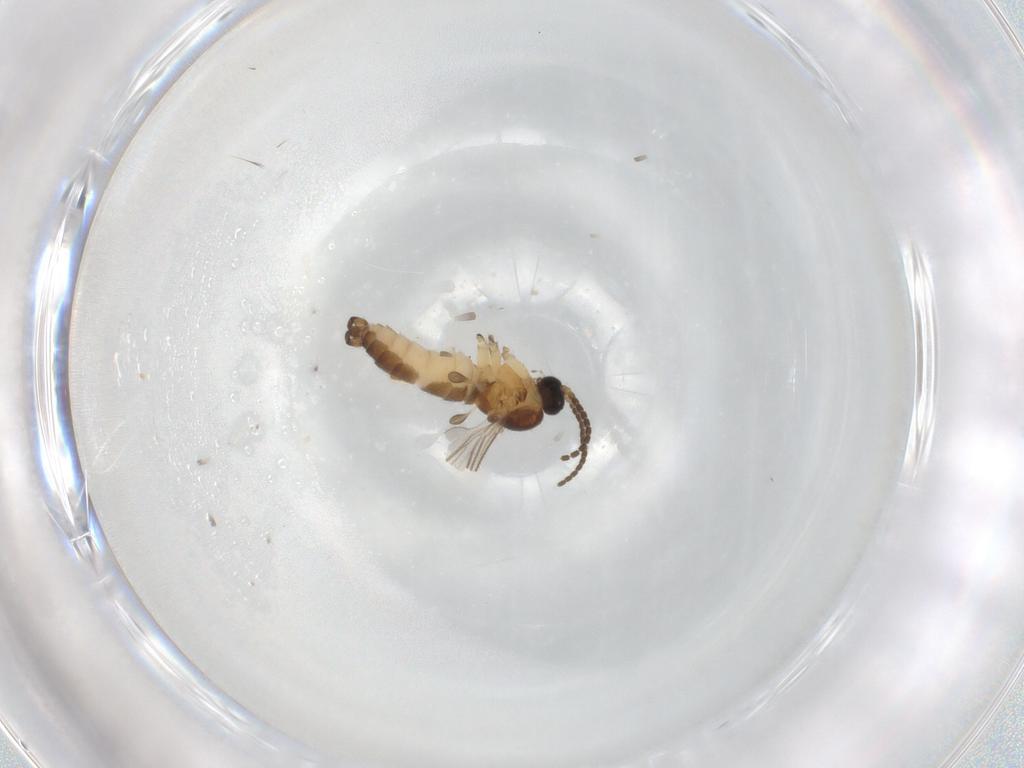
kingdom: Animalia
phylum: Arthropoda
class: Insecta
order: Diptera
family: Sciaridae
